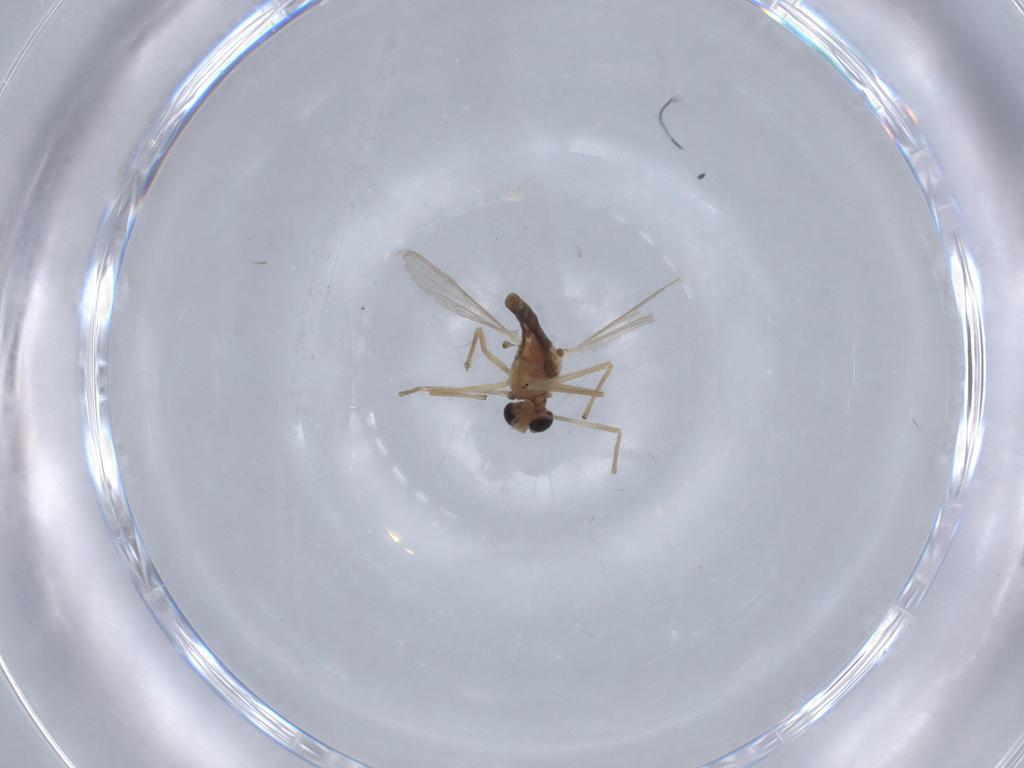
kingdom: Animalia
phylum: Arthropoda
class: Insecta
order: Diptera
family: Chironomidae
